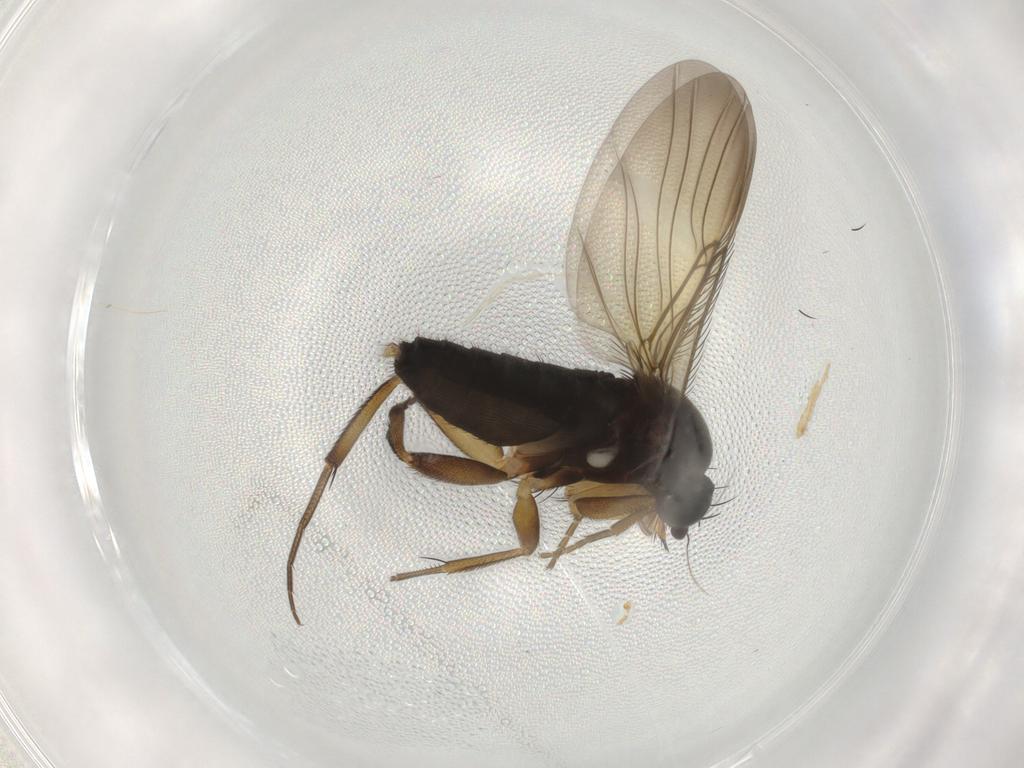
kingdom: Animalia
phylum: Arthropoda
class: Insecta
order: Diptera
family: Phoridae
